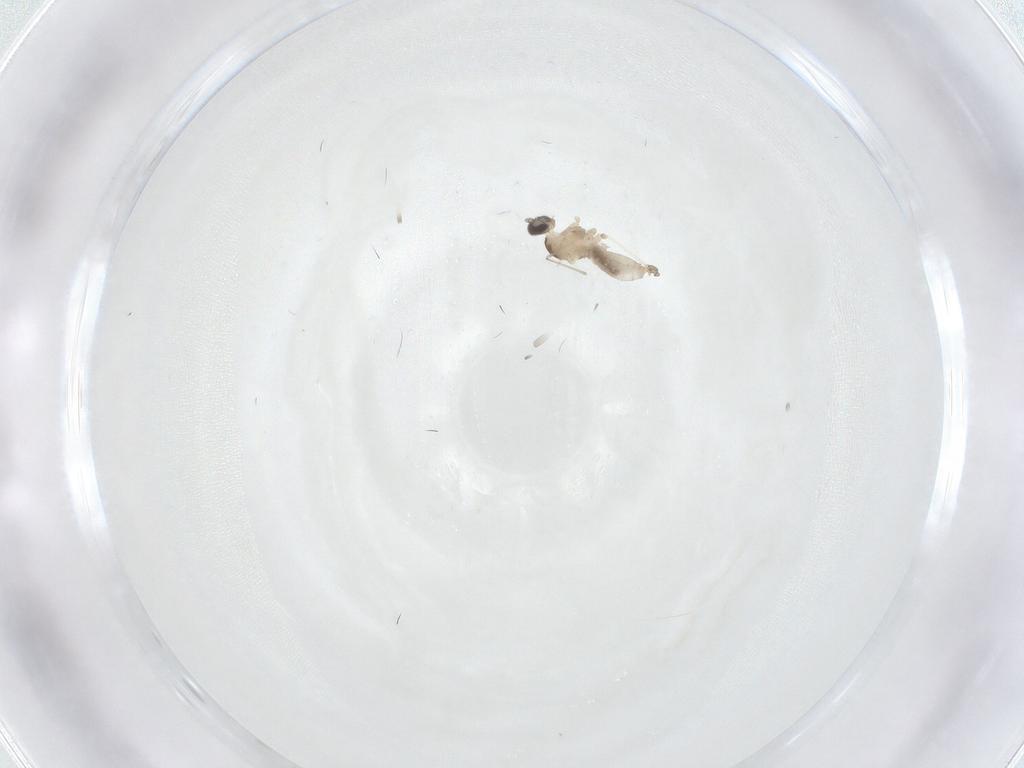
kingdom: Animalia
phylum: Arthropoda
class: Insecta
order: Diptera
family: Cecidomyiidae
